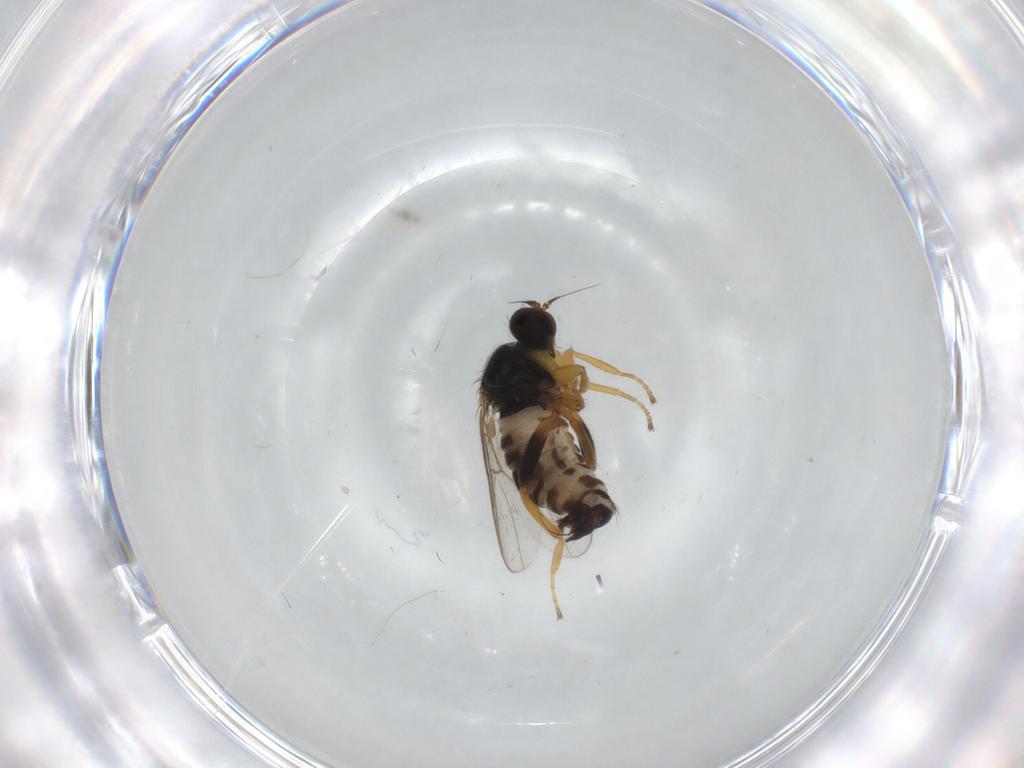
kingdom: Animalia
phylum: Arthropoda
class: Insecta
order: Diptera
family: Hybotidae
